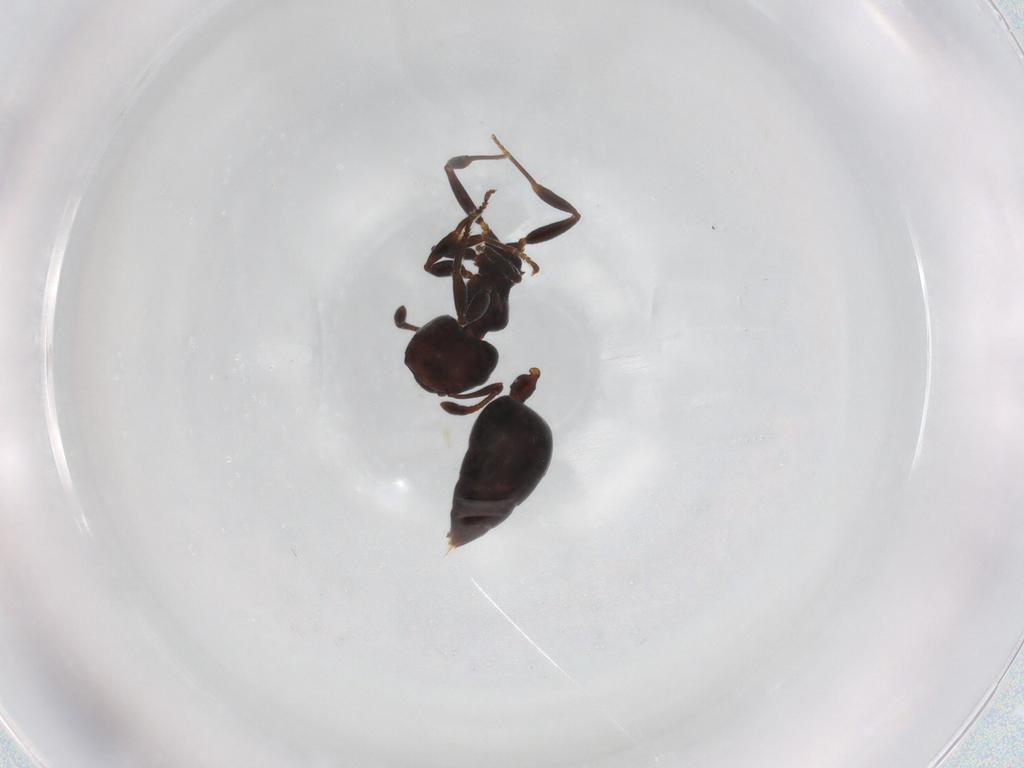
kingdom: Animalia
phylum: Arthropoda
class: Insecta
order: Hymenoptera
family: Braconidae
